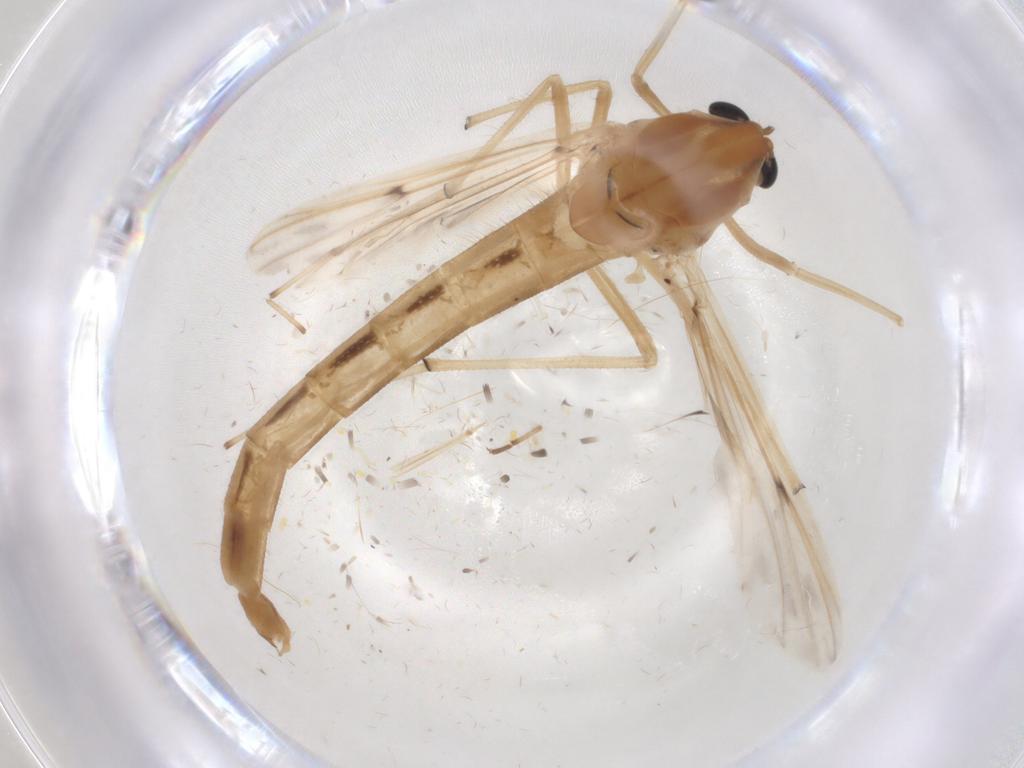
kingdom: Animalia
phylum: Arthropoda
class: Insecta
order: Diptera
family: Chironomidae
